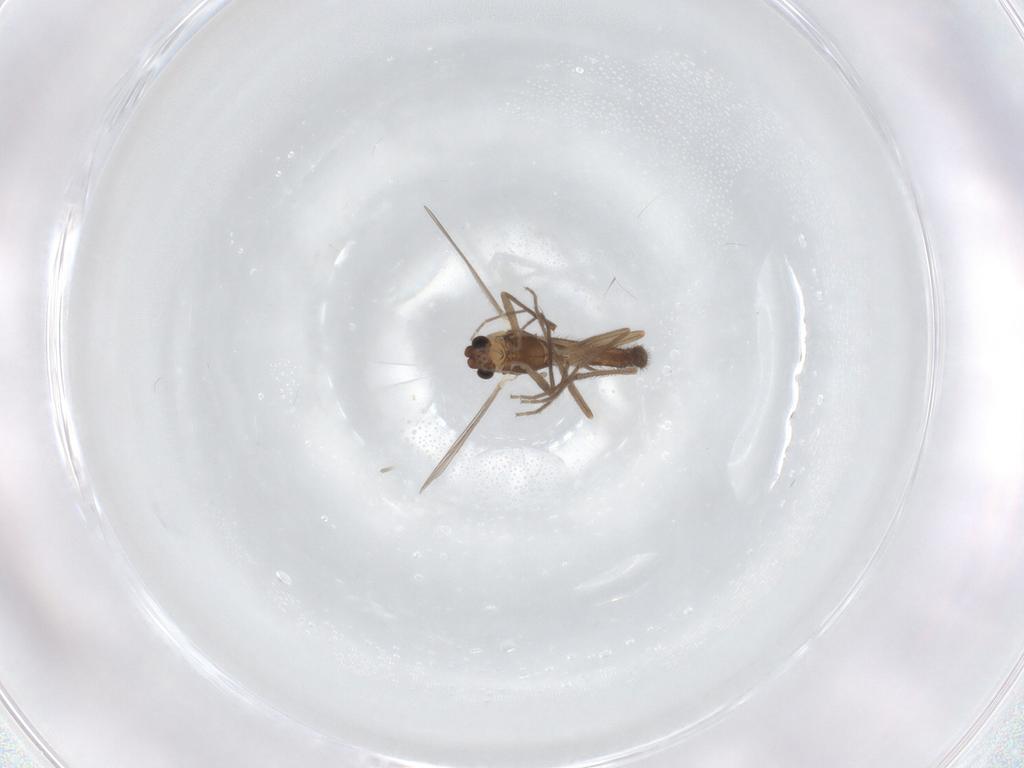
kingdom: Animalia
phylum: Arthropoda
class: Insecta
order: Diptera
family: Chironomidae
